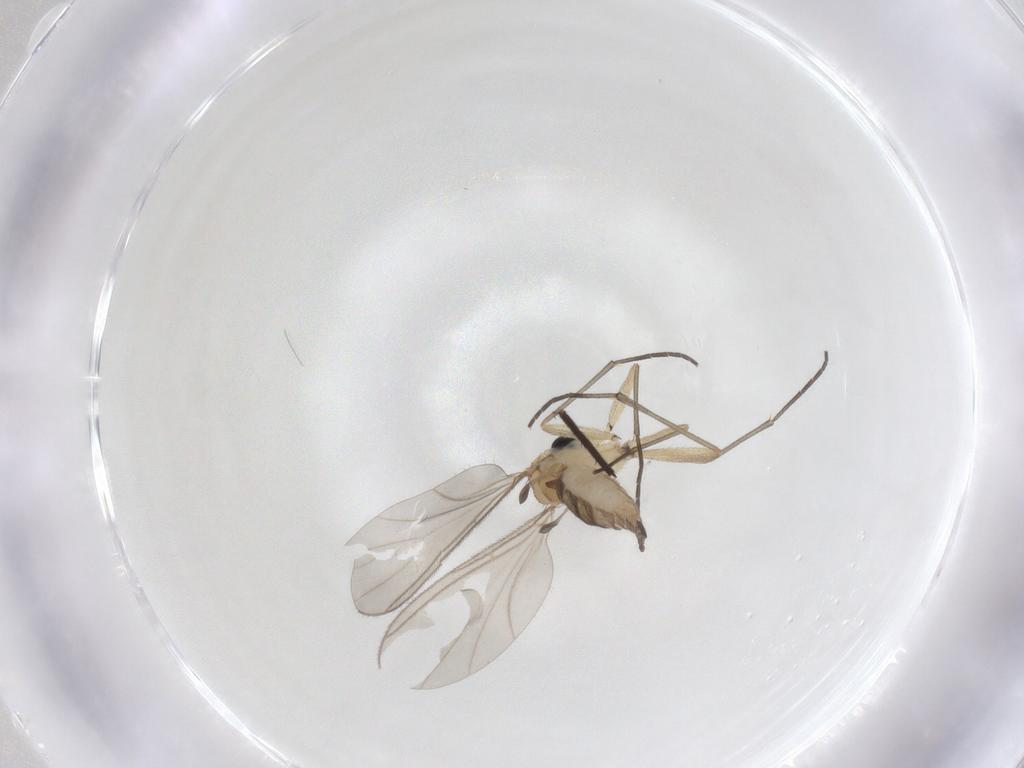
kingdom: Animalia
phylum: Arthropoda
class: Insecta
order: Diptera
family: Sciaridae
